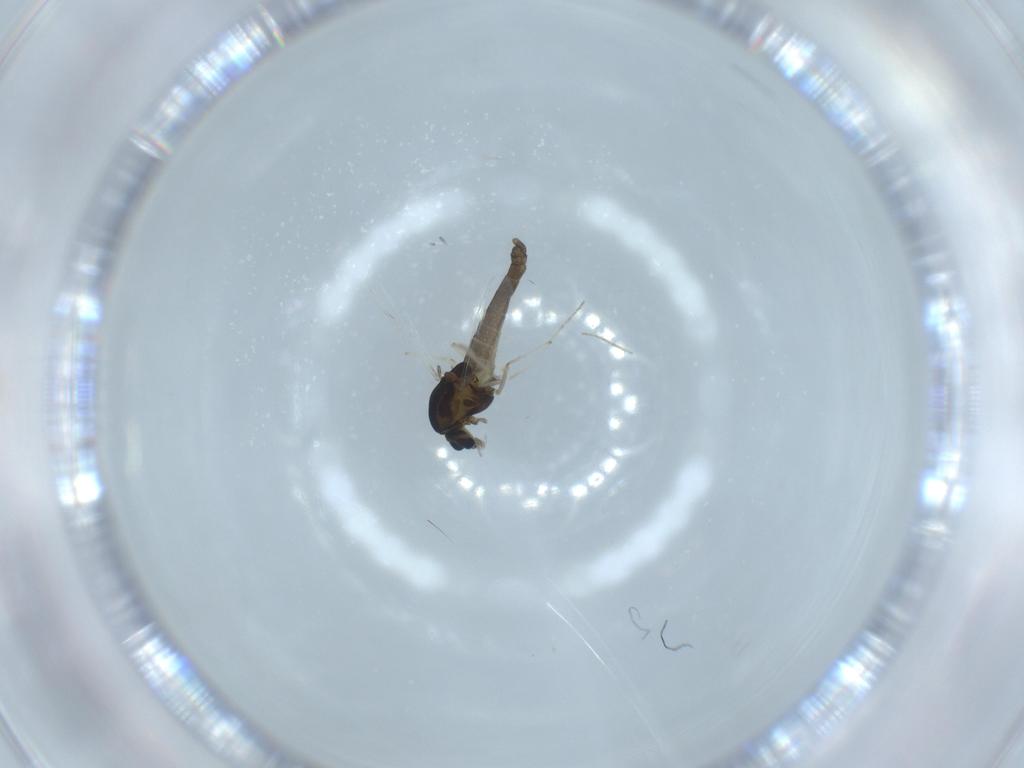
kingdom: Animalia
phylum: Arthropoda
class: Insecta
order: Diptera
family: Chironomidae
